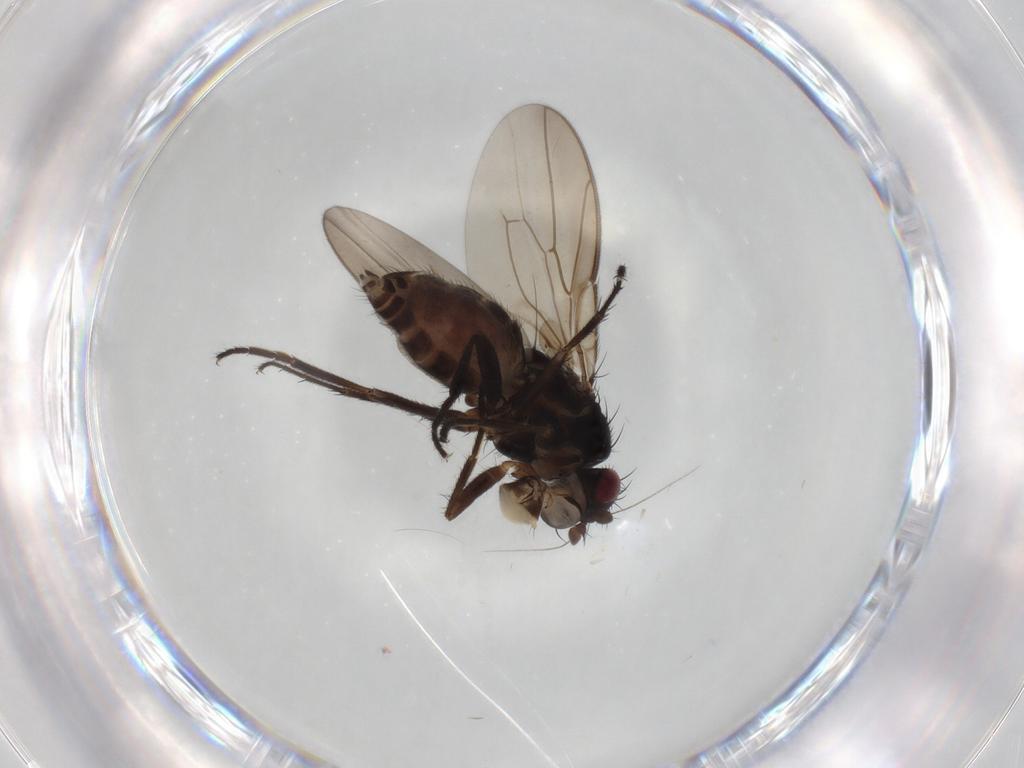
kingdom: Animalia
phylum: Arthropoda
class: Insecta
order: Diptera
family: Sphaeroceridae
